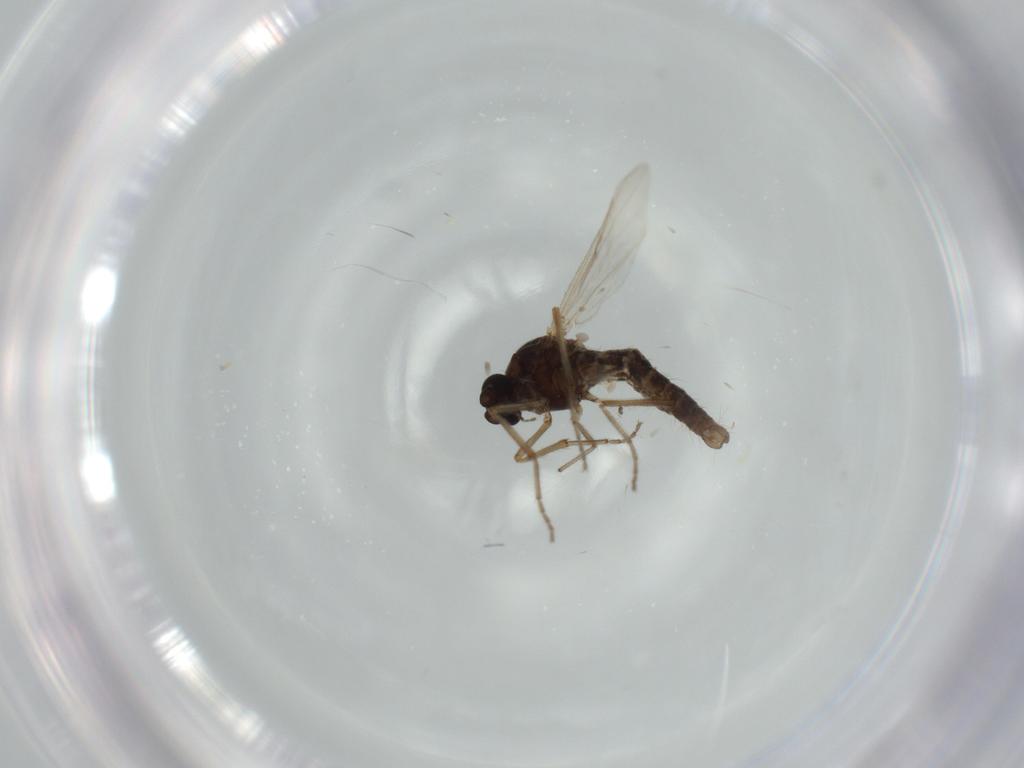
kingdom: Animalia
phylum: Arthropoda
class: Insecta
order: Diptera
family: Ceratopogonidae
